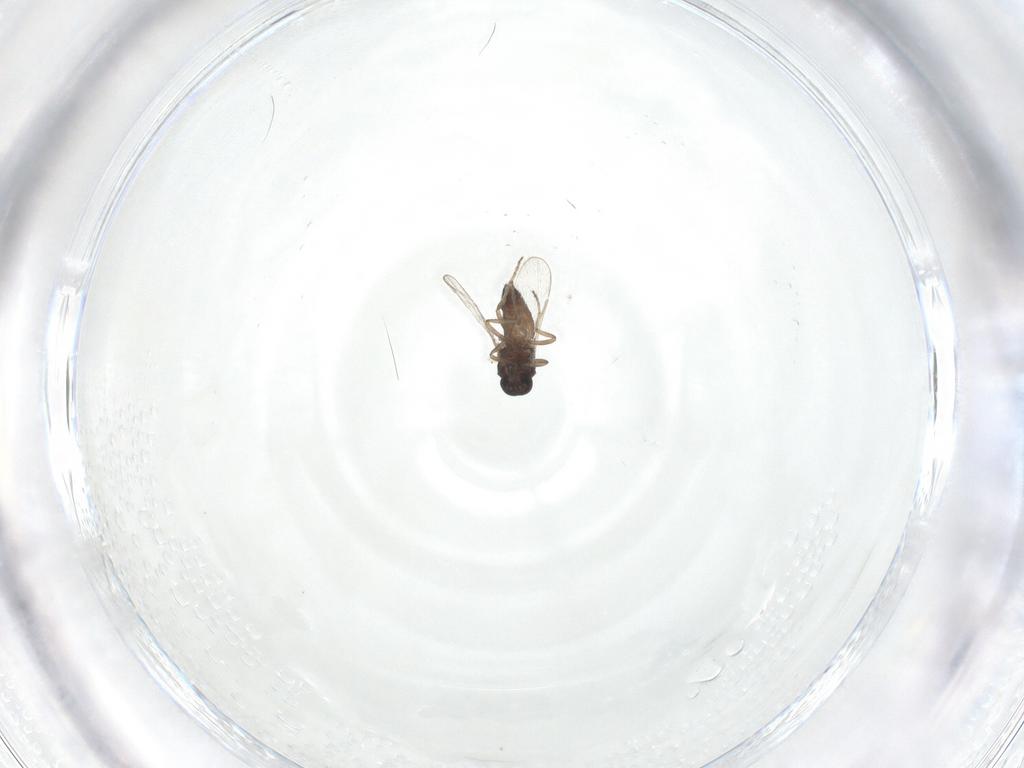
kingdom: Animalia
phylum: Arthropoda
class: Insecta
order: Diptera
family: Ceratopogonidae
